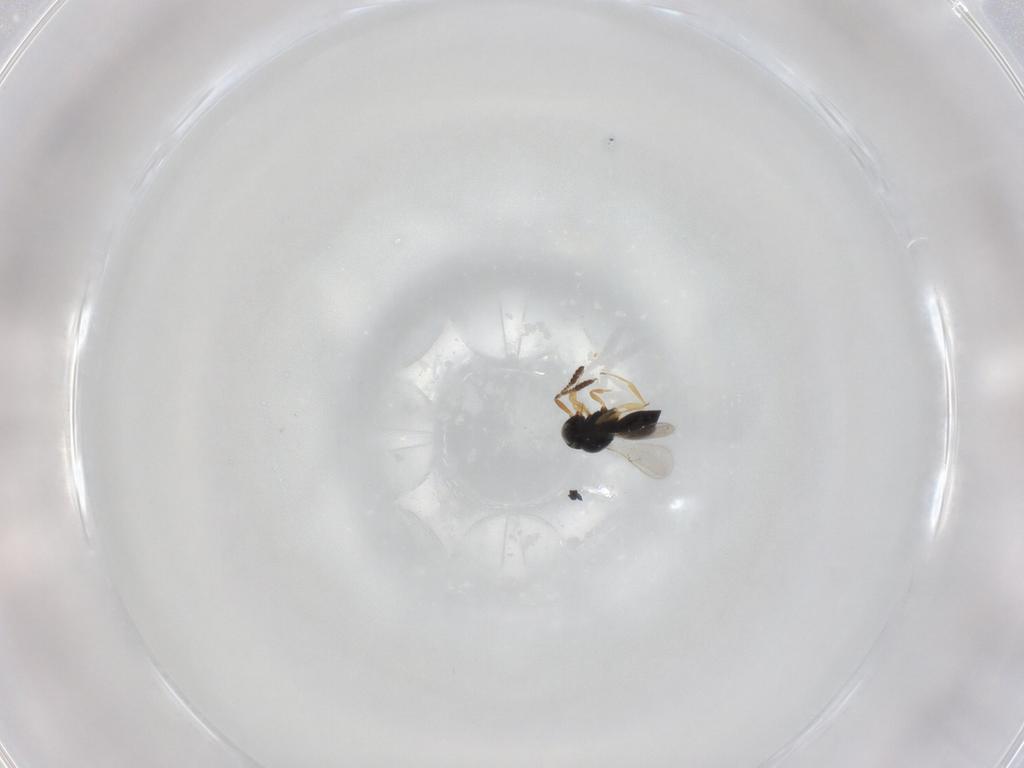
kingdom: Animalia
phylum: Arthropoda
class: Insecta
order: Hymenoptera
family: Scelionidae
